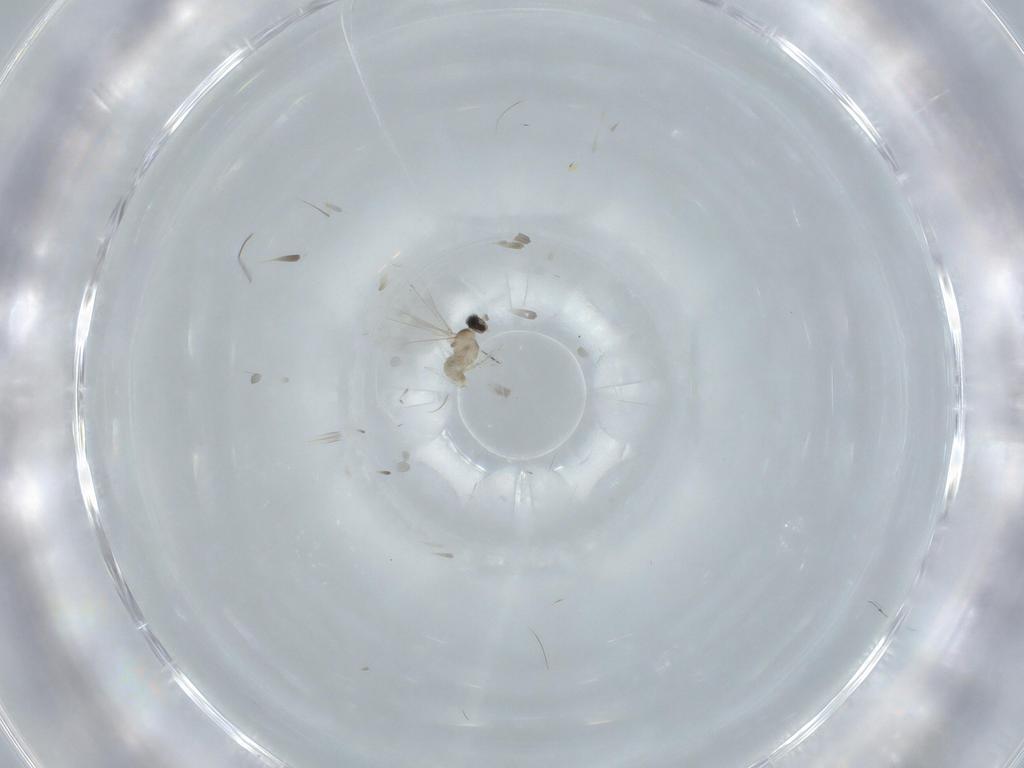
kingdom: Animalia
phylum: Arthropoda
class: Insecta
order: Diptera
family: Cecidomyiidae
